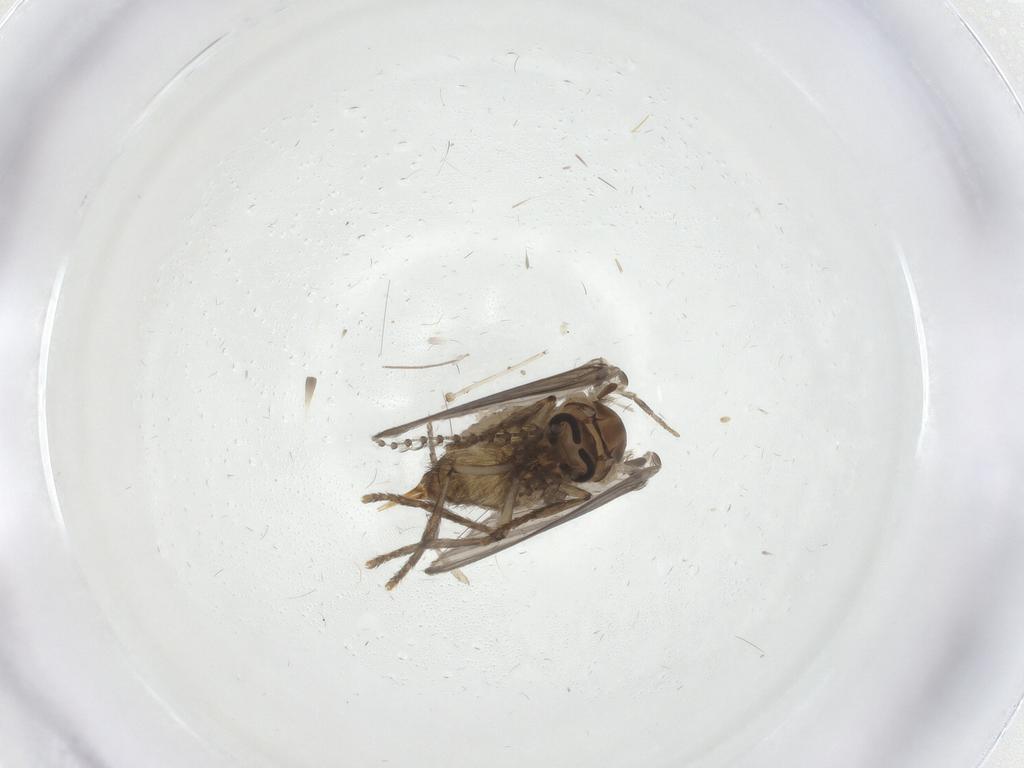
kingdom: Animalia
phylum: Arthropoda
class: Insecta
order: Diptera
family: Psychodidae
